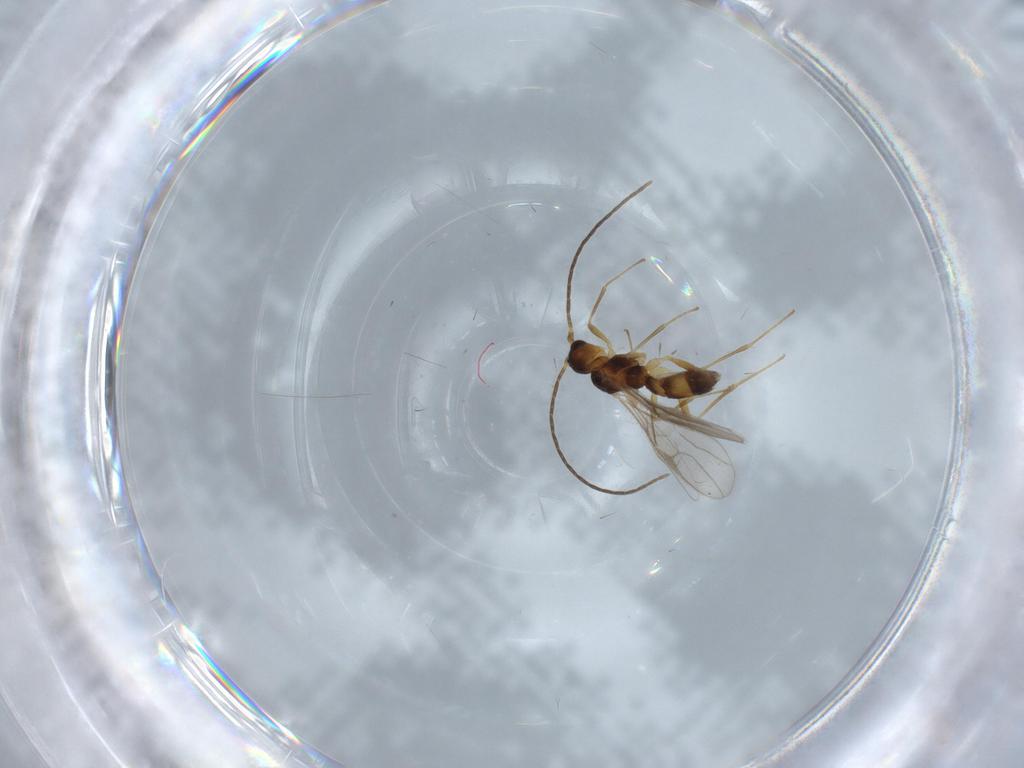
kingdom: Animalia
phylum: Arthropoda
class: Insecta
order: Hymenoptera
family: Braconidae
